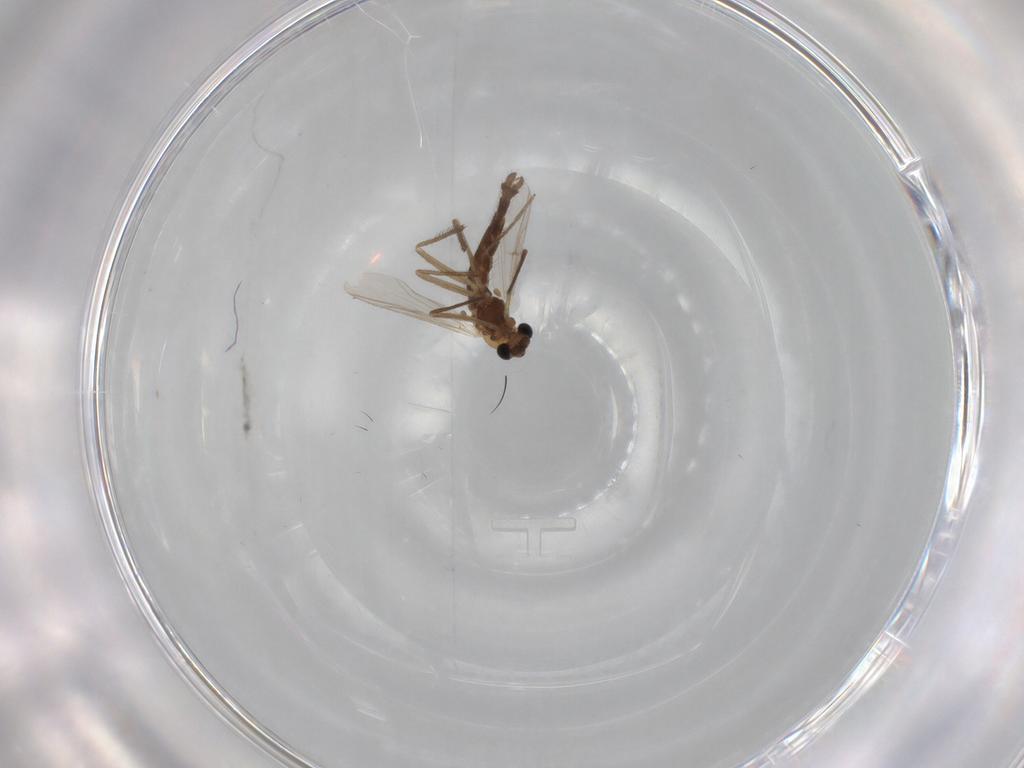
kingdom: Animalia
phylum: Arthropoda
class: Insecta
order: Diptera
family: Chironomidae
